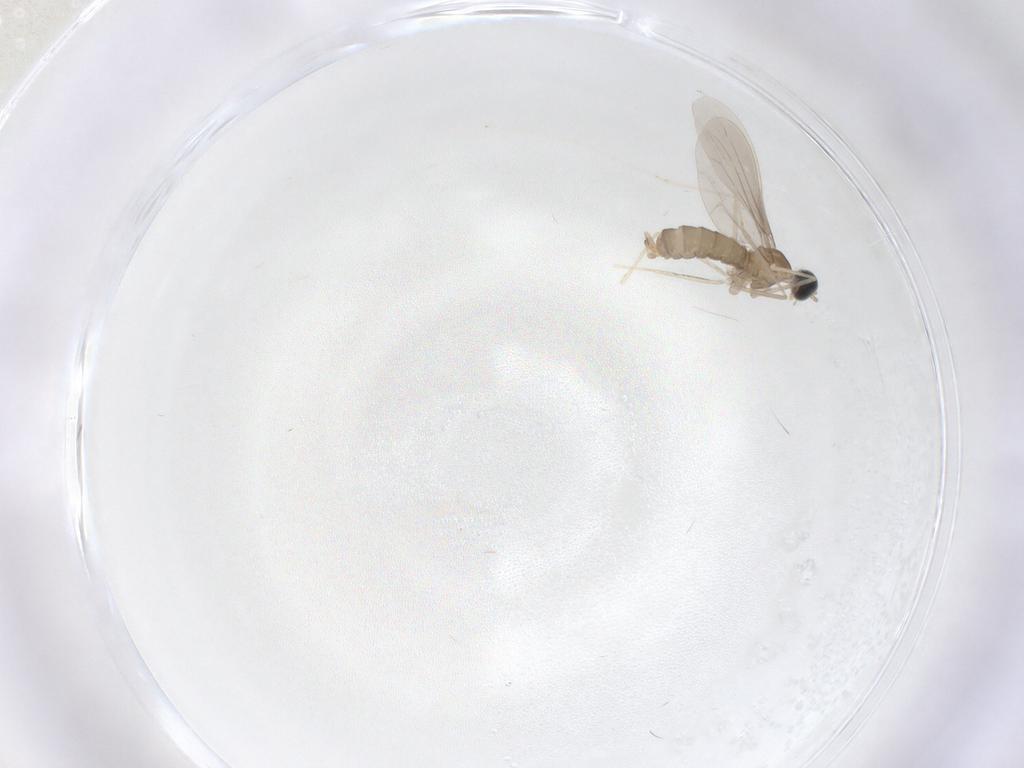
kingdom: Animalia
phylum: Arthropoda
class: Insecta
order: Diptera
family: Cecidomyiidae
